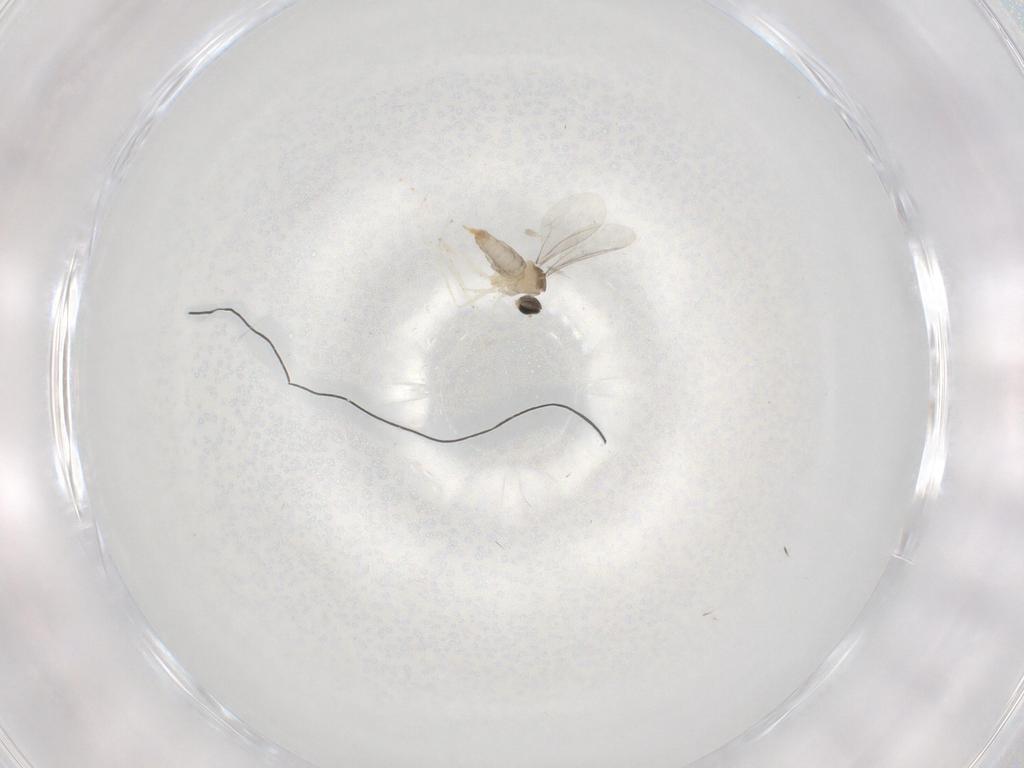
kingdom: Animalia
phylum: Arthropoda
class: Insecta
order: Diptera
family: Cecidomyiidae
